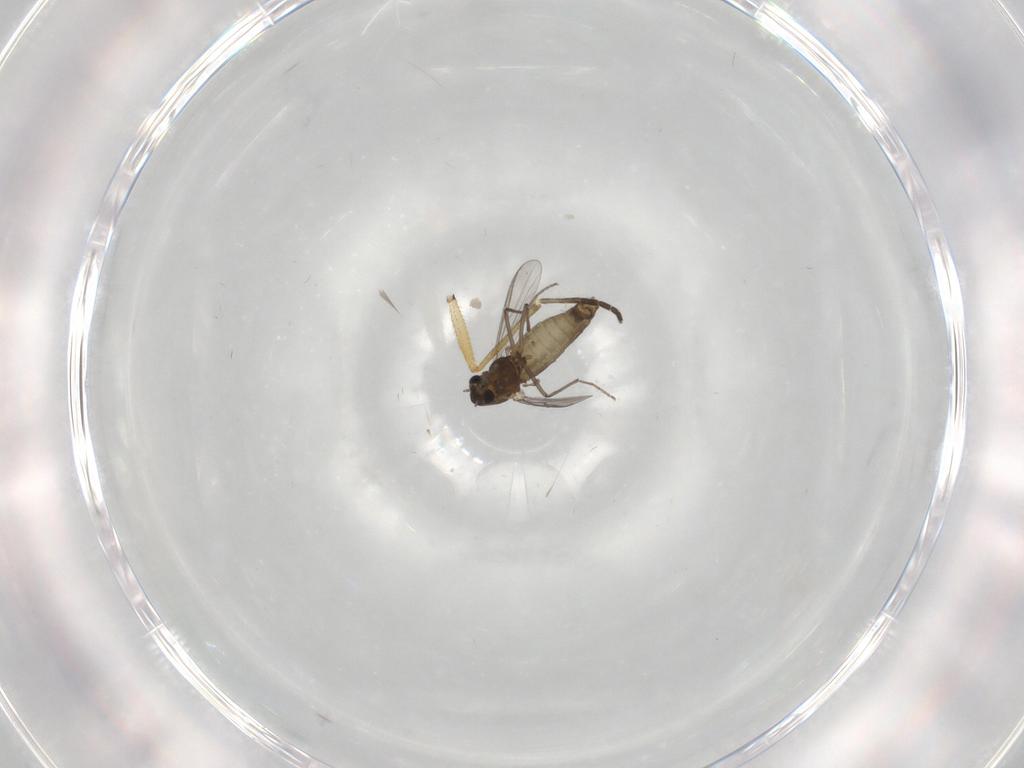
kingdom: Animalia
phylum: Arthropoda
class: Insecta
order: Diptera
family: Chironomidae
